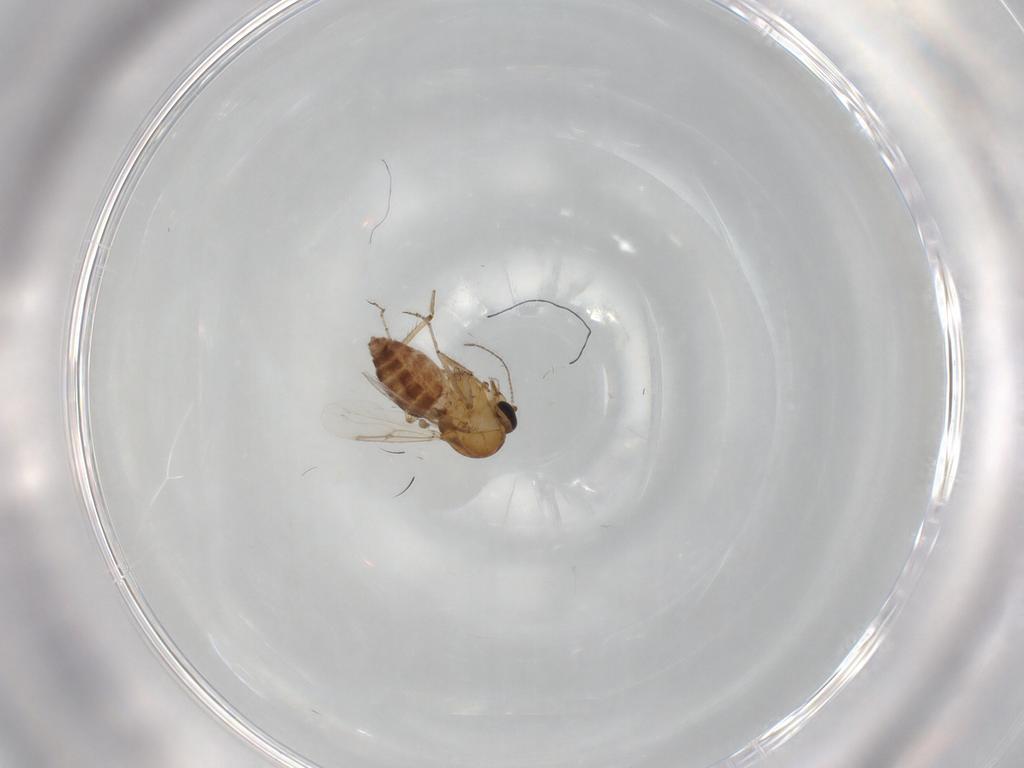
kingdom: Animalia
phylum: Arthropoda
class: Insecta
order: Diptera
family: Ceratopogonidae
